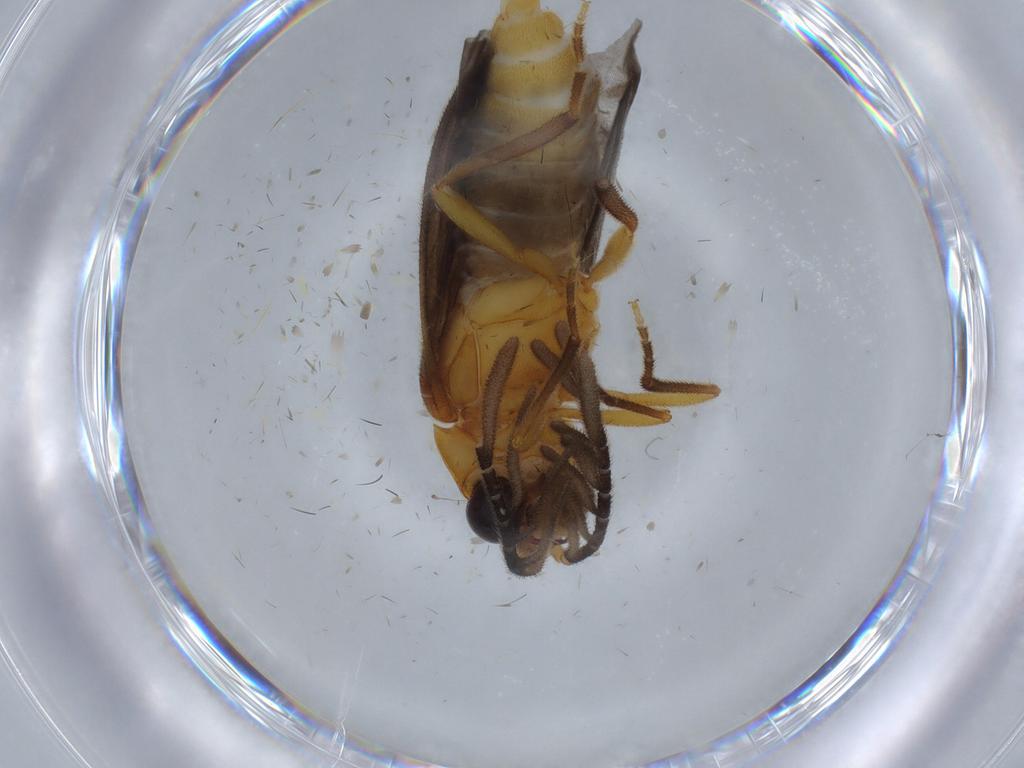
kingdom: Animalia
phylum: Arthropoda
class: Insecta
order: Coleoptera
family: Lampyridae
